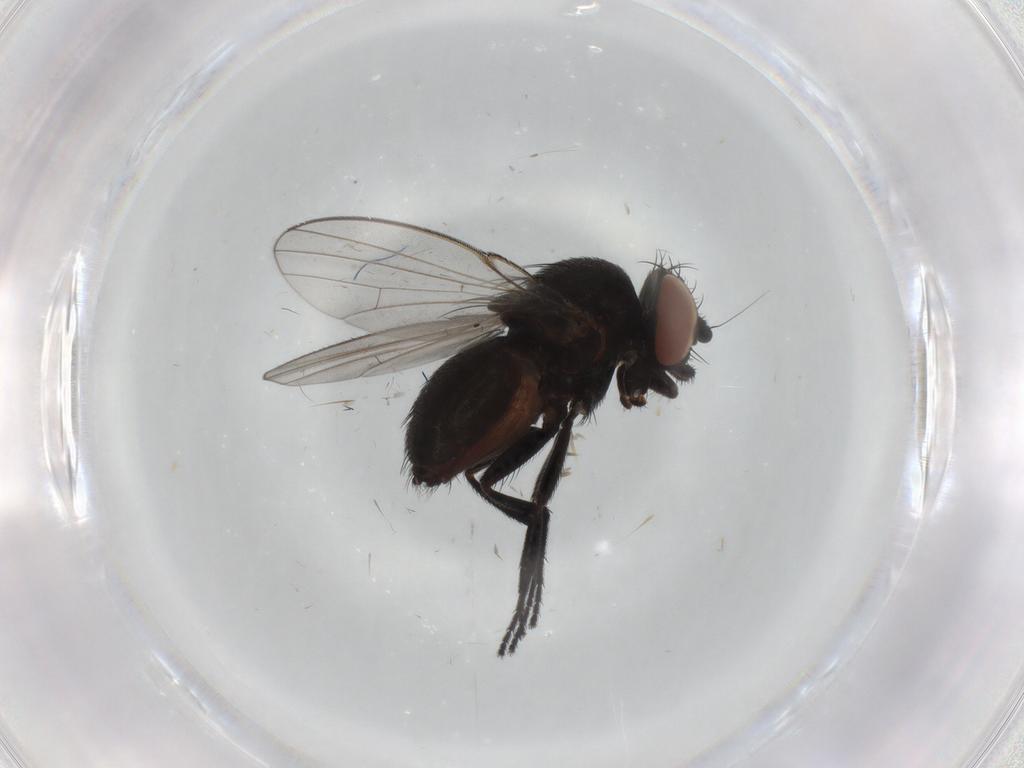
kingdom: Animalia
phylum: Arthropoda
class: Insecta
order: Diptera
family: Milichiidae
